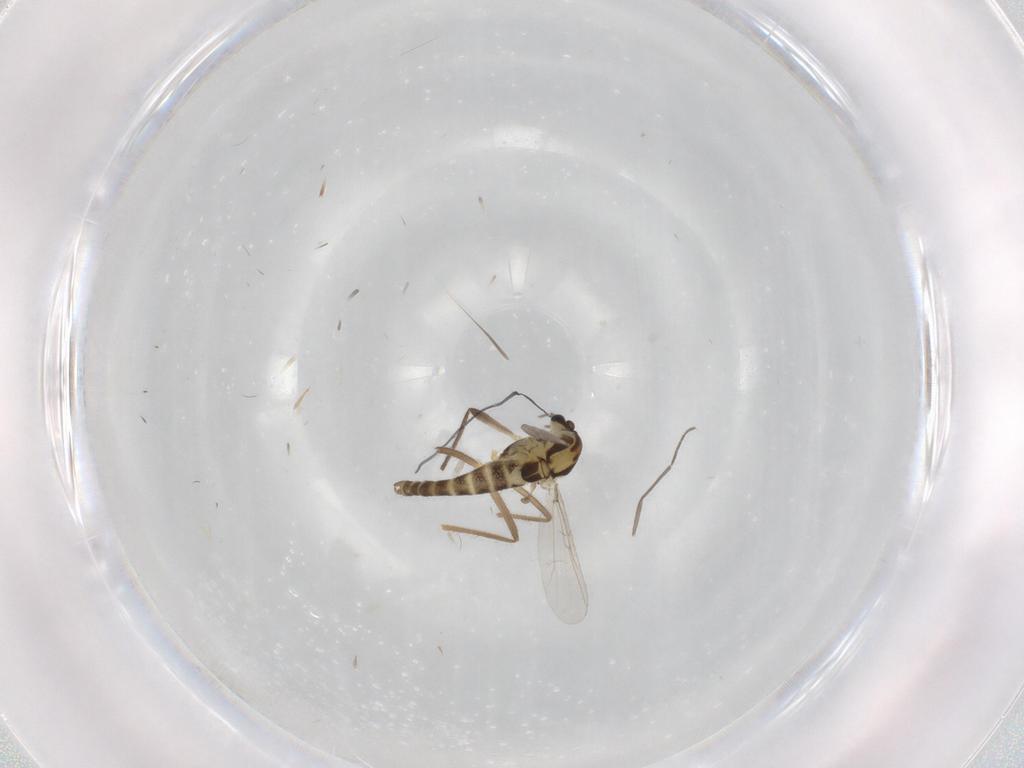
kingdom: Animalia
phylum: Arthropoda
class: Insecta
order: Diptera
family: Chironomidae
